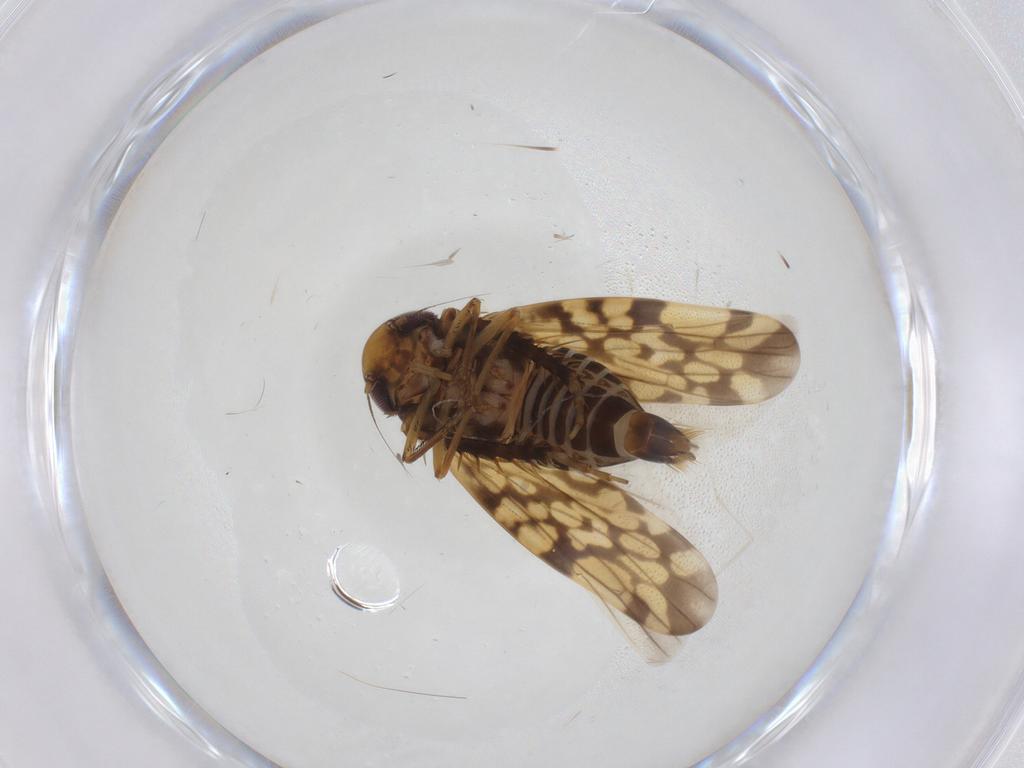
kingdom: Animalia
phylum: Arthropoda
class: Insecta
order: Hemiptera
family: Cicadellidae
